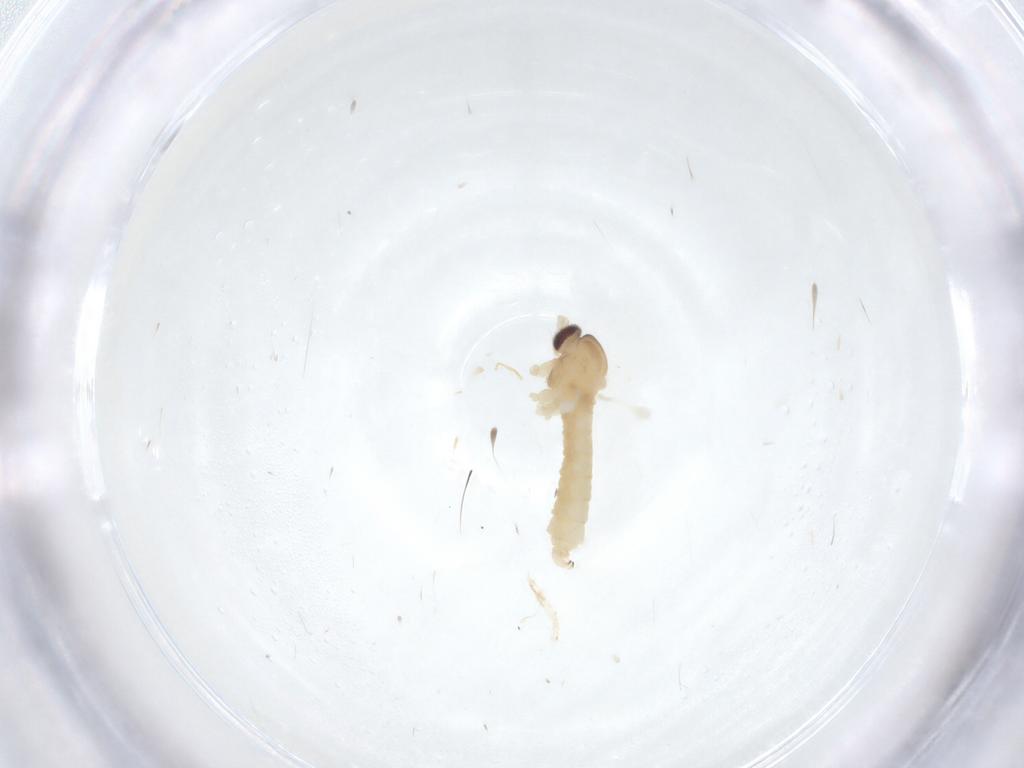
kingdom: Animalia
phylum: Arthropoda
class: Insecta
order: Diptera
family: Cecidomyiidae
